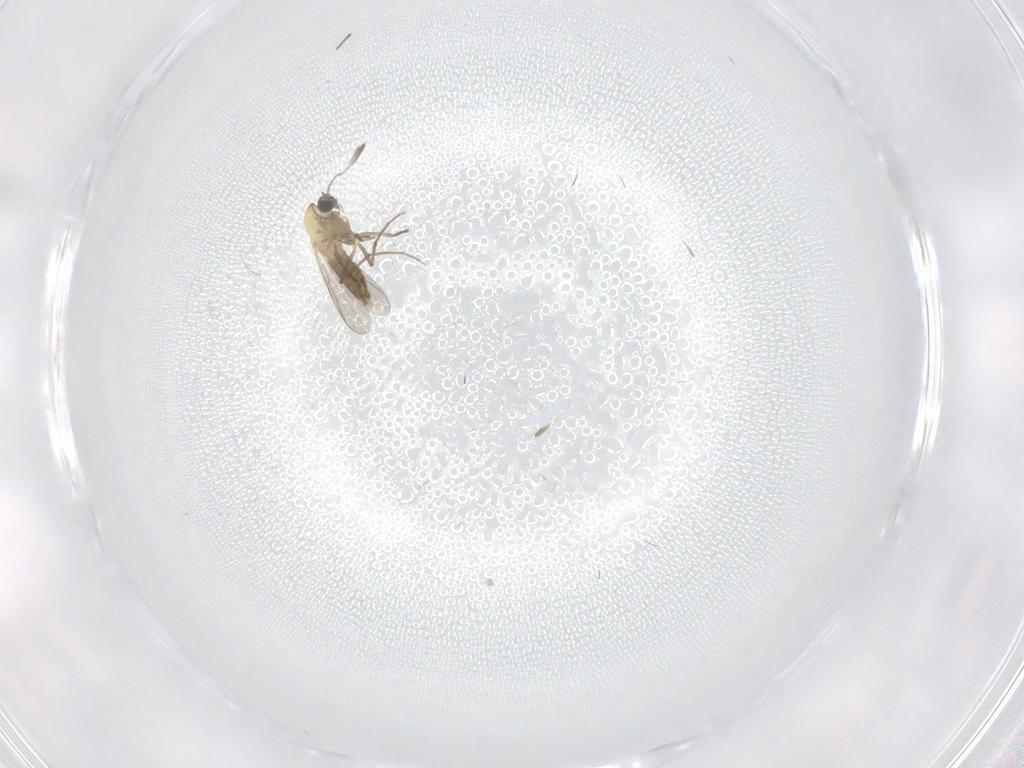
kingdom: Animalia
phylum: Arthropoda
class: Insecta
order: Diptera
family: Chironomidae
